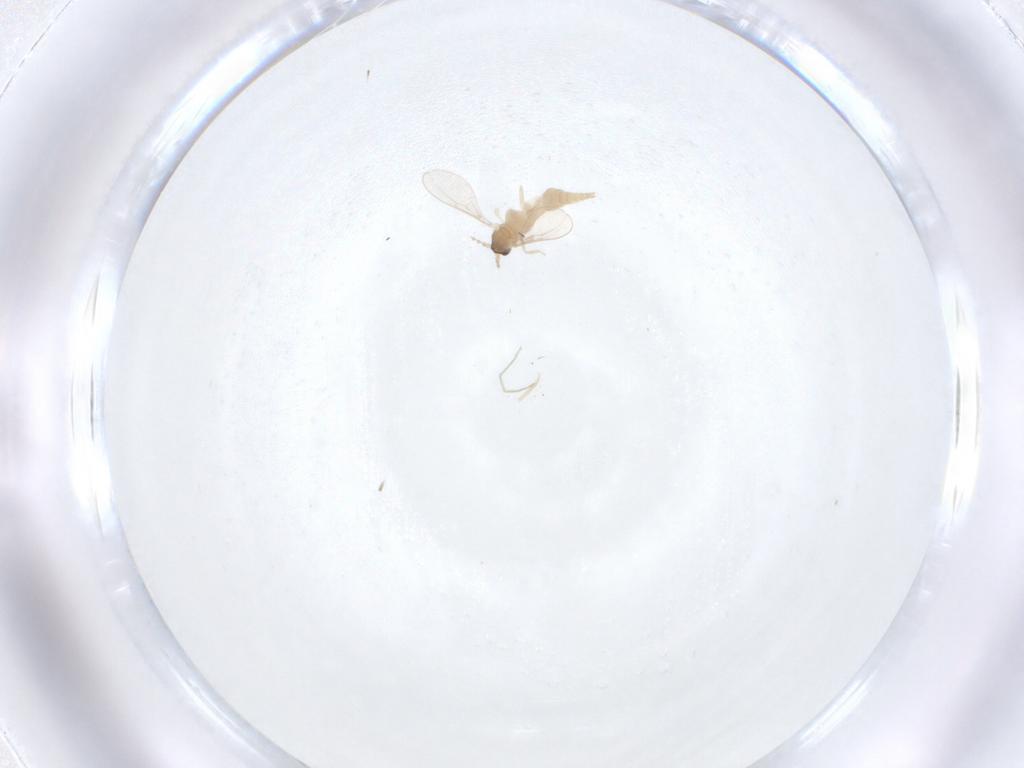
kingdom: Animalia
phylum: Arthropoda
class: Insecta
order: Diptera
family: Cecidomyiidae
